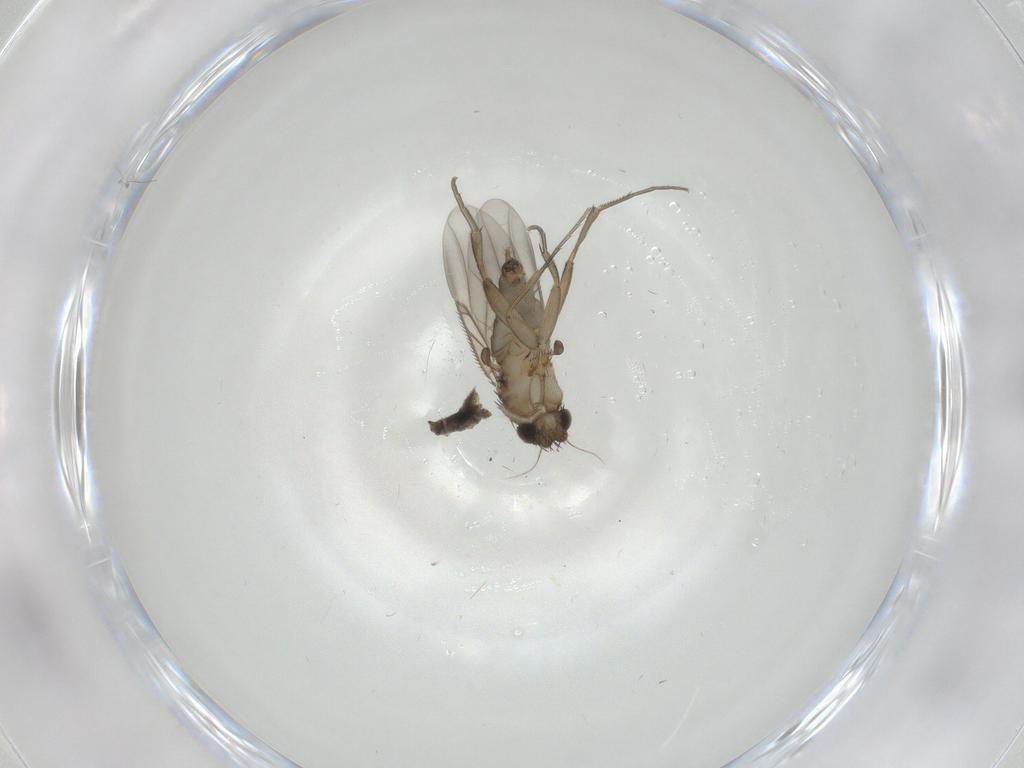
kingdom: Animalia
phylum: Arthropoda
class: Insecta
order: Diptera
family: Phoridae
